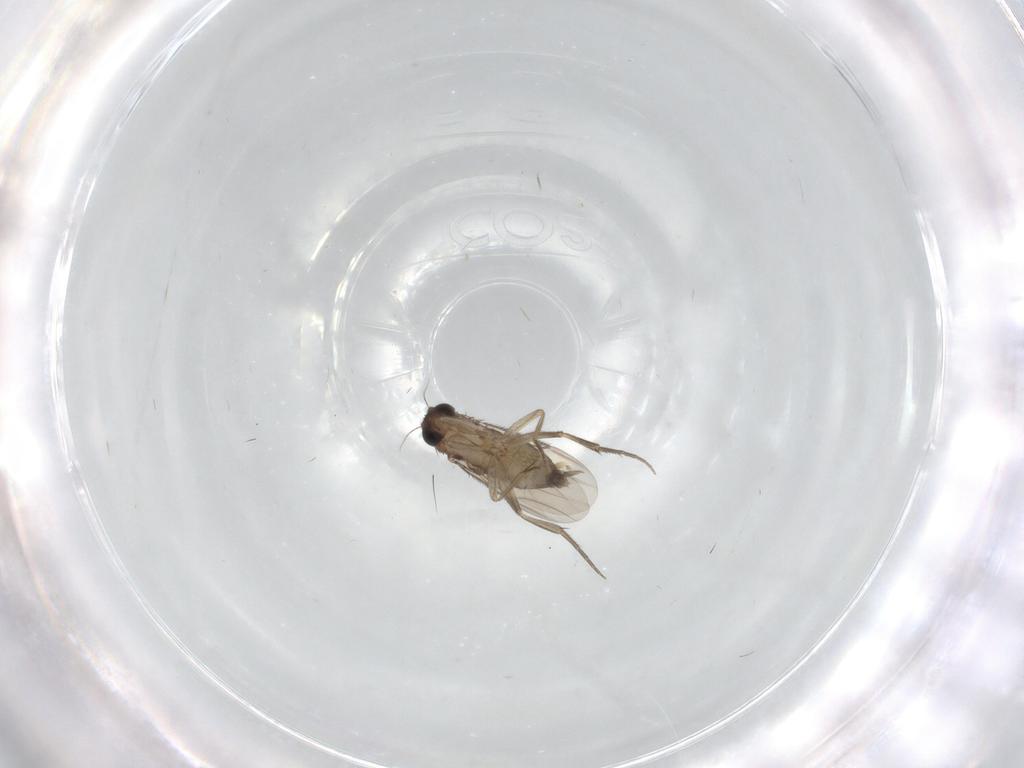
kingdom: Animalia
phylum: Arthropoda
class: Insecta
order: Diptera
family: Phoridae
